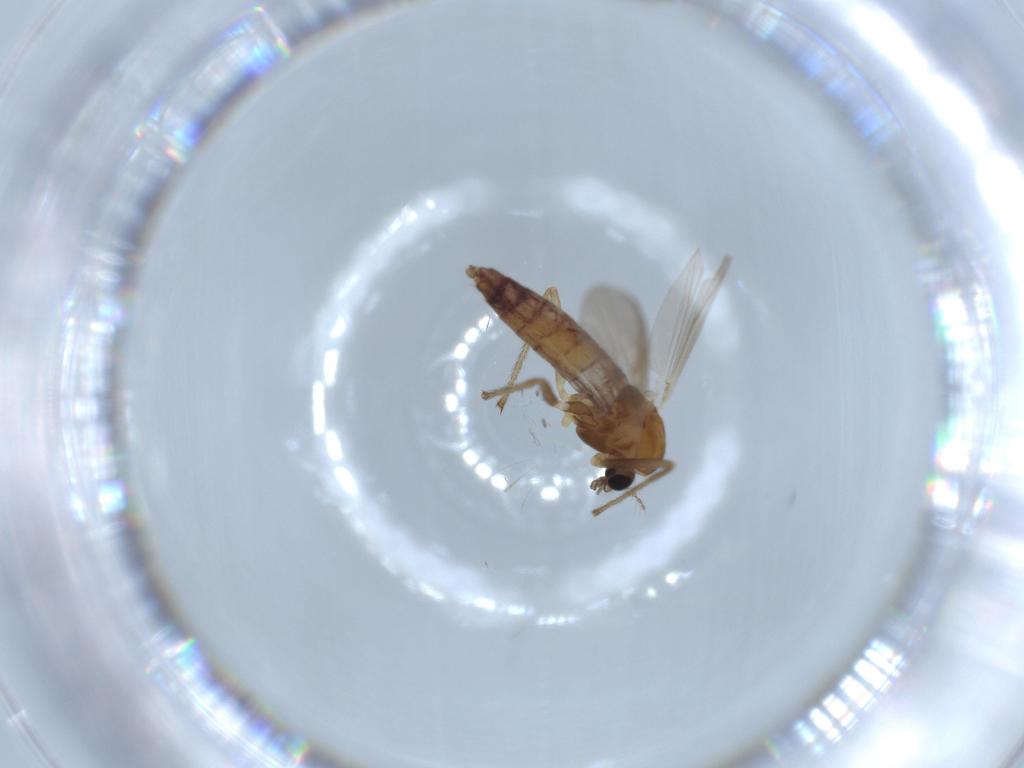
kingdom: Animalia
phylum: Arthropoda
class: Insecta
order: Diptera
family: Chironomidae
